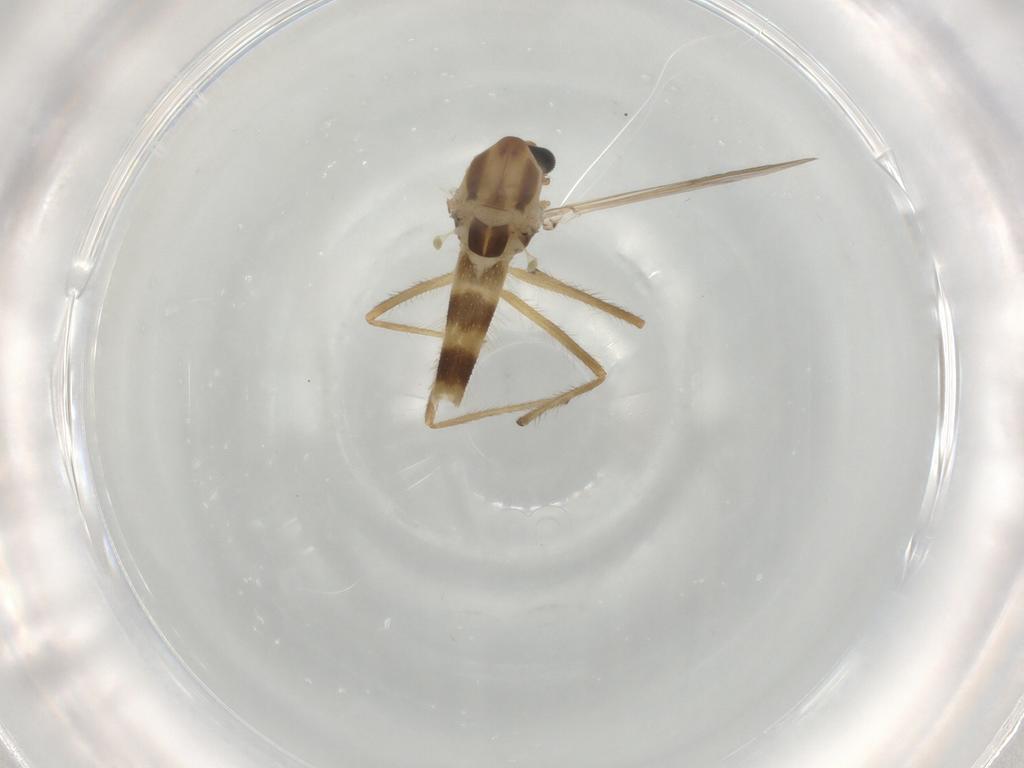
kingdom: Animalia
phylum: Arthropoda
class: Insecta
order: Diptera
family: Chironomidae
